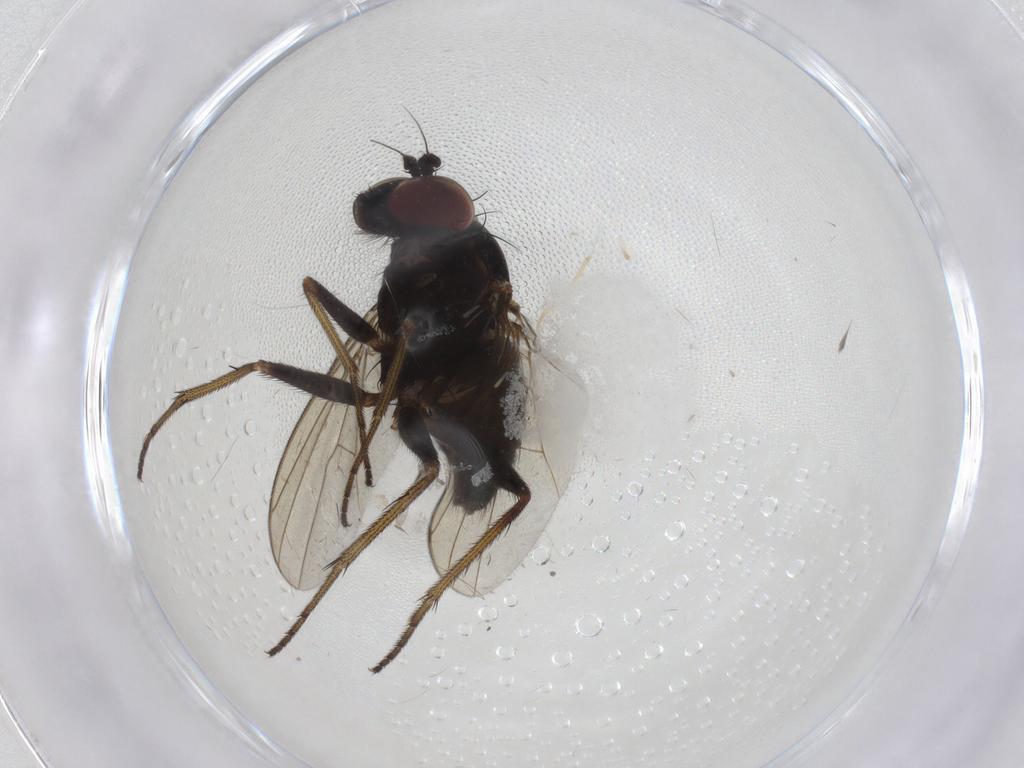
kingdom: Animalia
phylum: Arthropoda
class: Insecta
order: Diptera
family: Dolichopodidae
